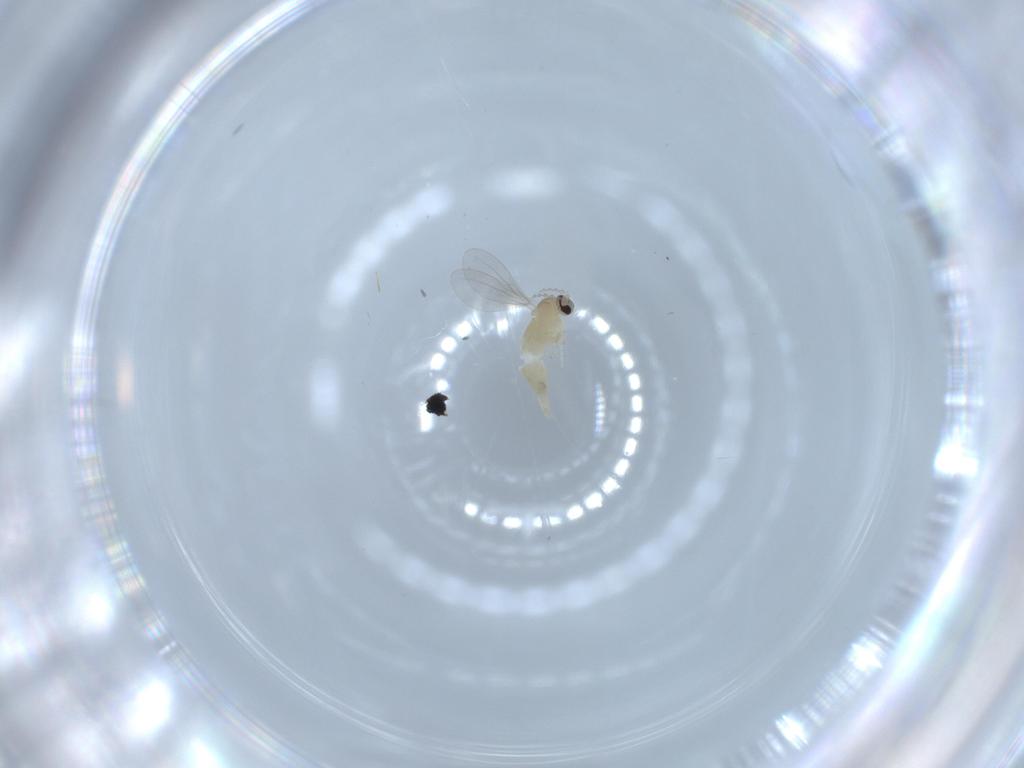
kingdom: Animalia
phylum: Arthropoda
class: Insecta
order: Diptera
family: Cecidomyiidae
